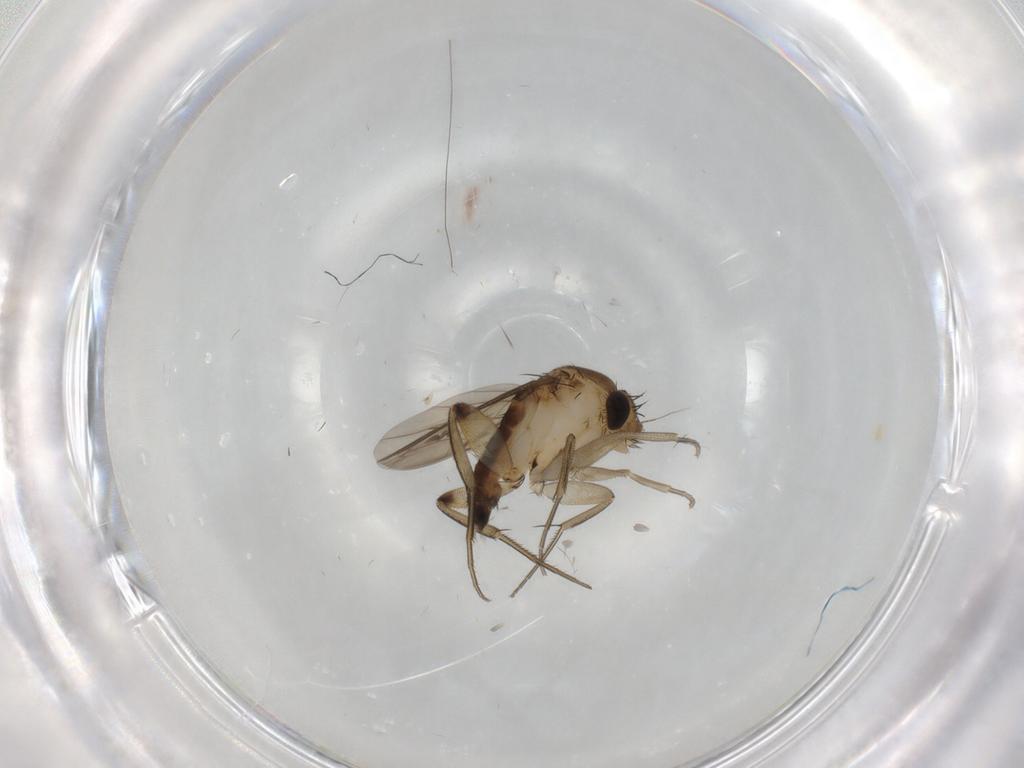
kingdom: Animalia
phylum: Arthropoda
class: Insecta
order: Diptera
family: Phoridae
